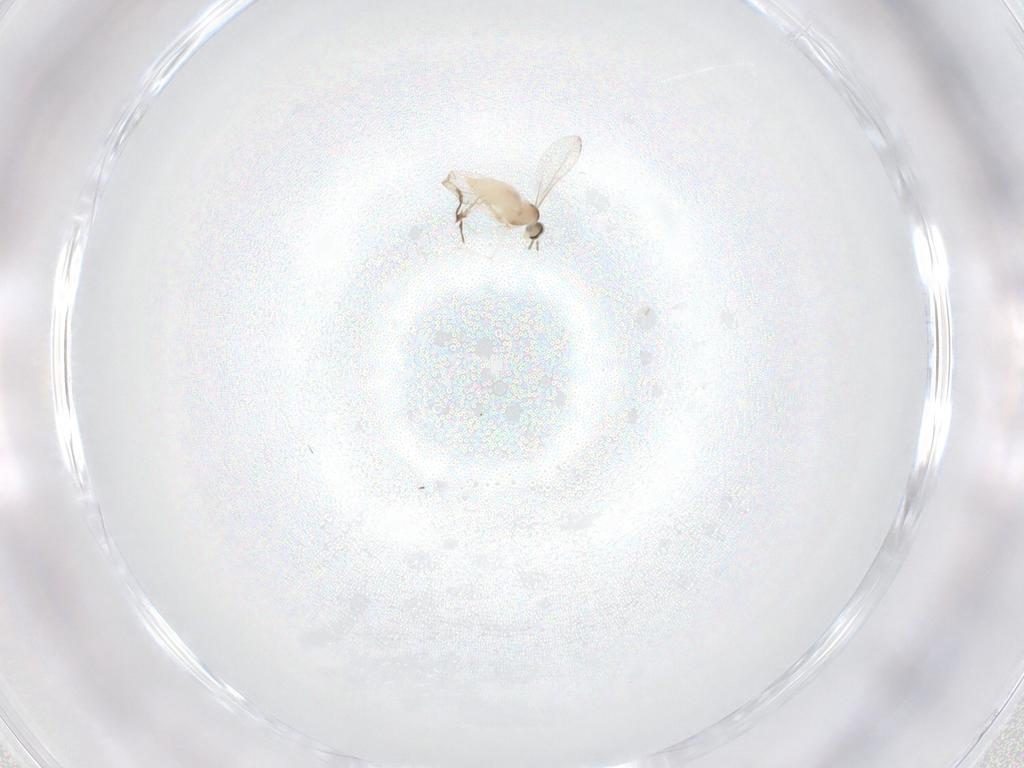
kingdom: Animalia
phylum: Arthropoda
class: Insecta
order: Diptera
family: Cecidomyiidae
